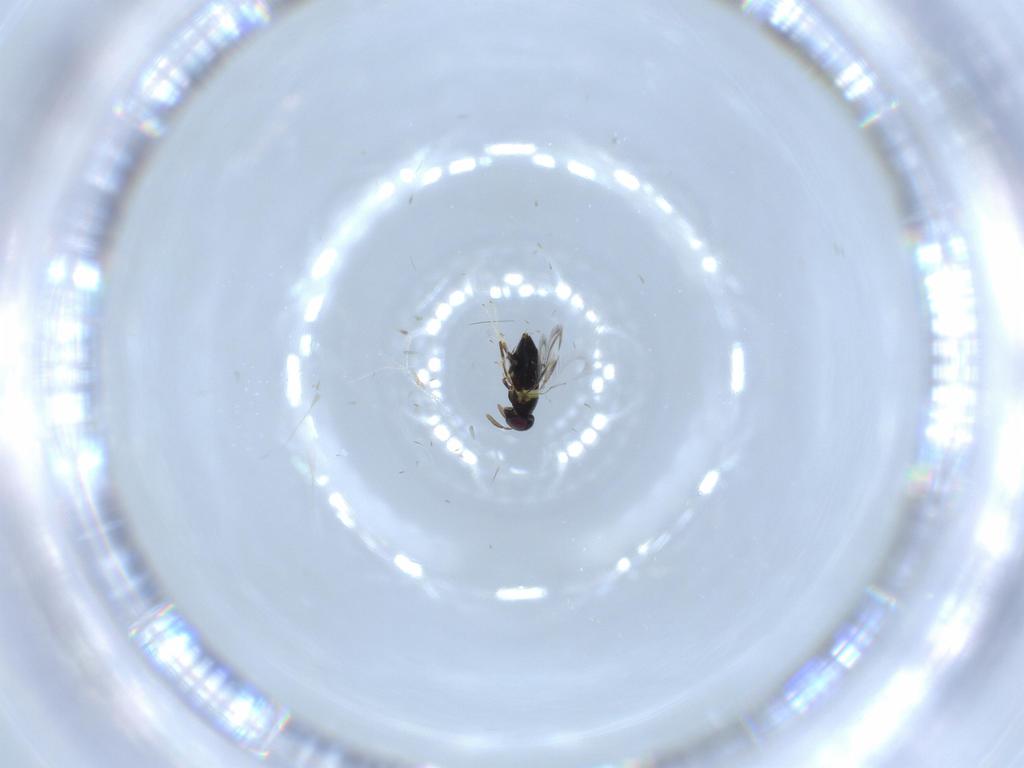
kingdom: Animalia
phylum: Arthropoda
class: Insecta
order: Hymenoptera
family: Signiphoridae
